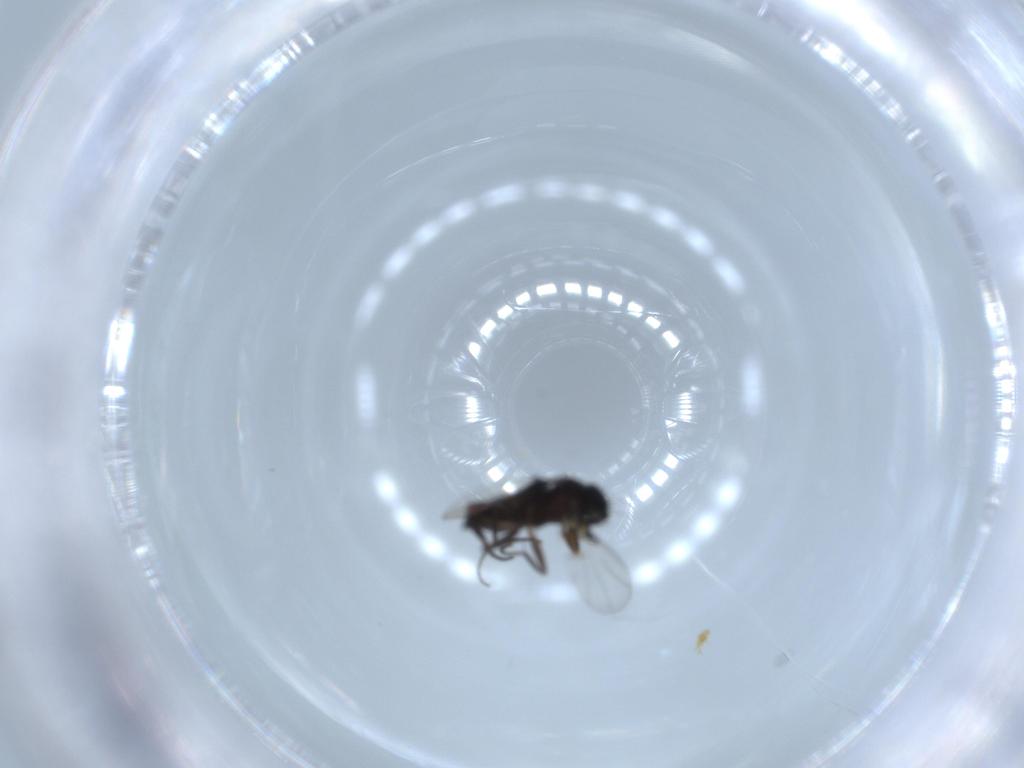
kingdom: Animalia
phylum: Arthropoda
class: Insecta
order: Diptera
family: Phoridae
